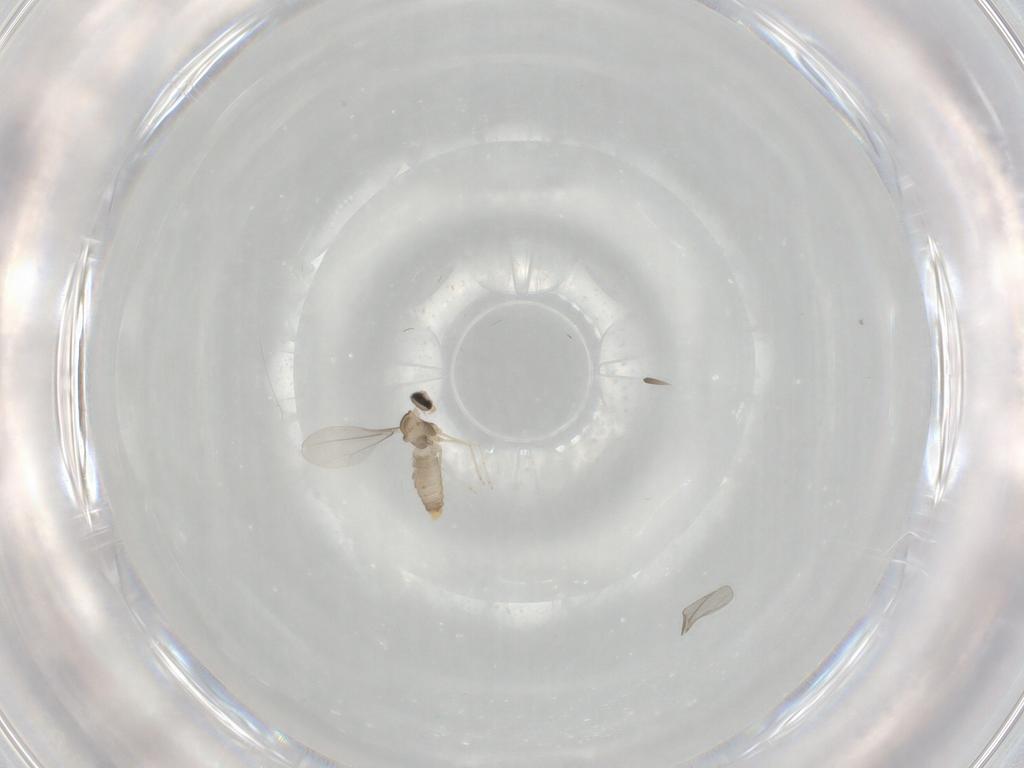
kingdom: Animalia
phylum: Arthropoda
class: Insecta
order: Diptera
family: Cecidomyiidae
